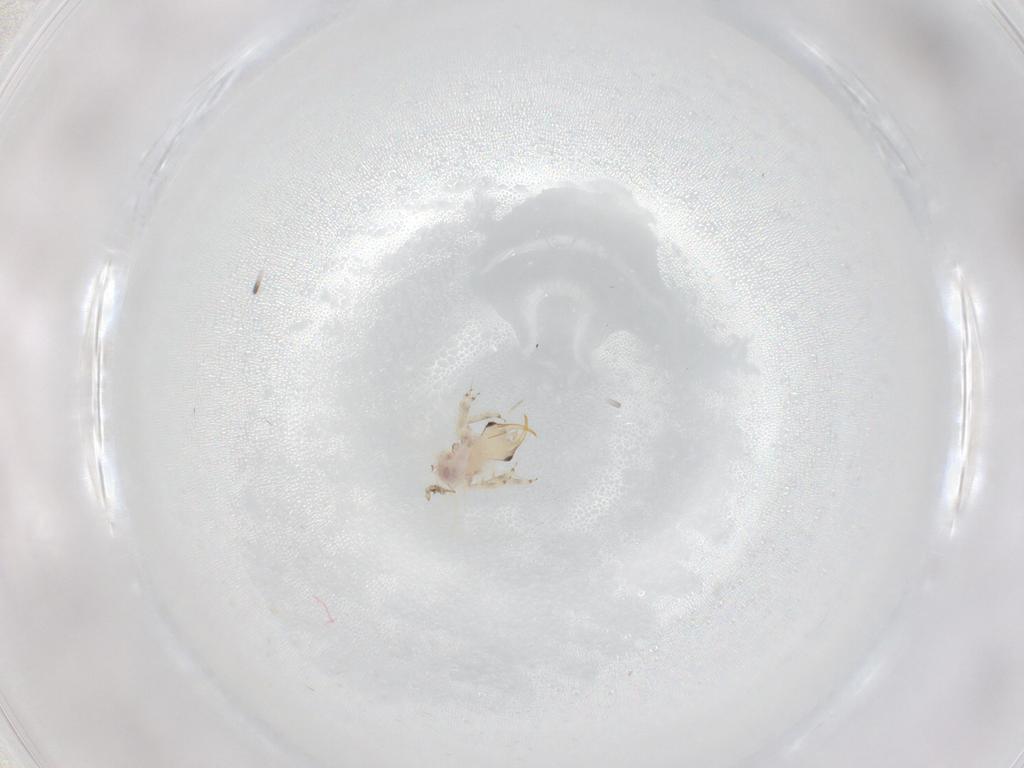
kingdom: Animalia
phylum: Arthropoda
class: Insecta
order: Neuroptera
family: Chrysopidae
